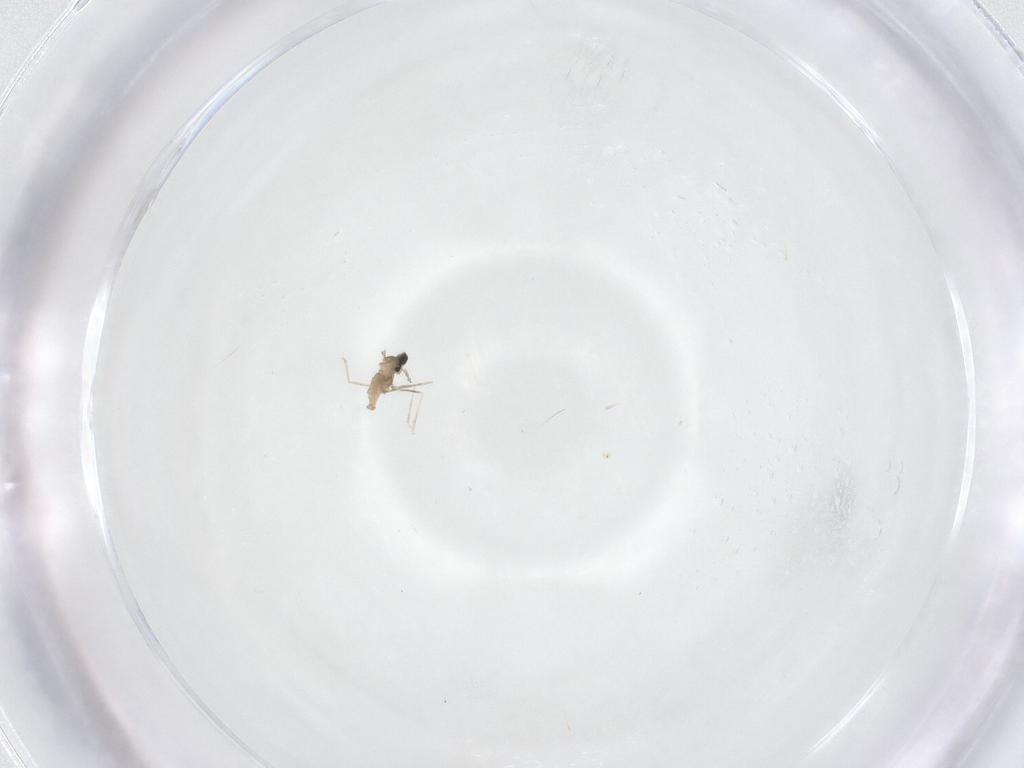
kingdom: Animalia
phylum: Arthropoda
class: Insecta
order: Diptera
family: Cecidomyiidae
